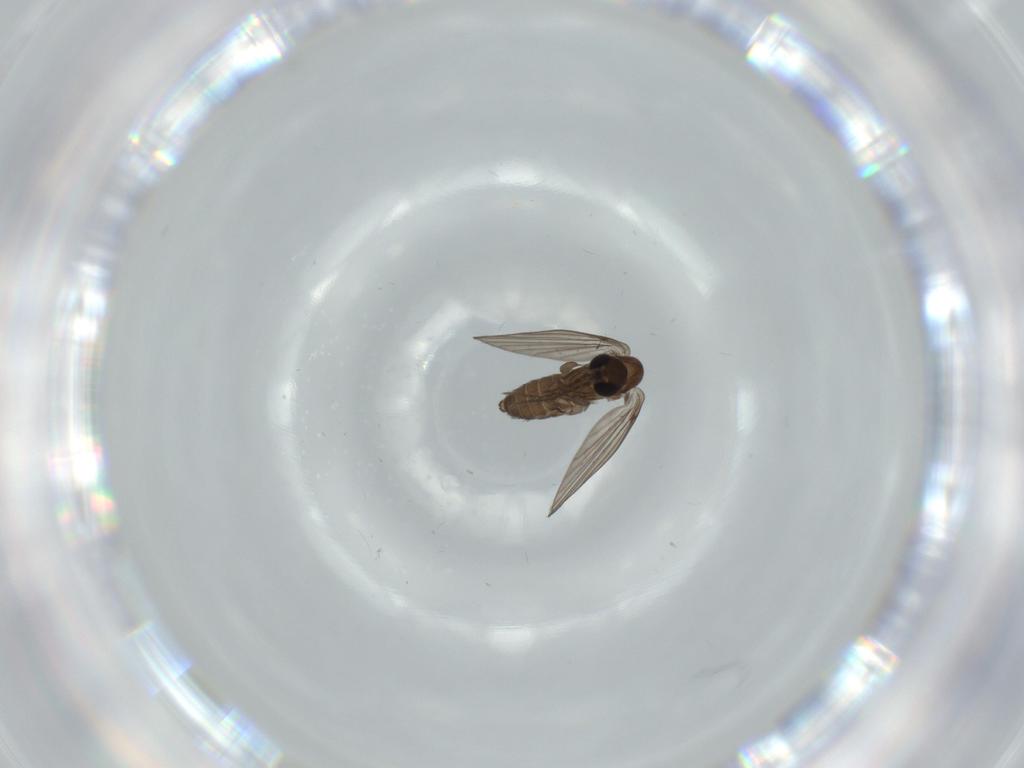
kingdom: Animalia
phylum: Arthropoda
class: Insecta
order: Diptera
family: Psychodidae
